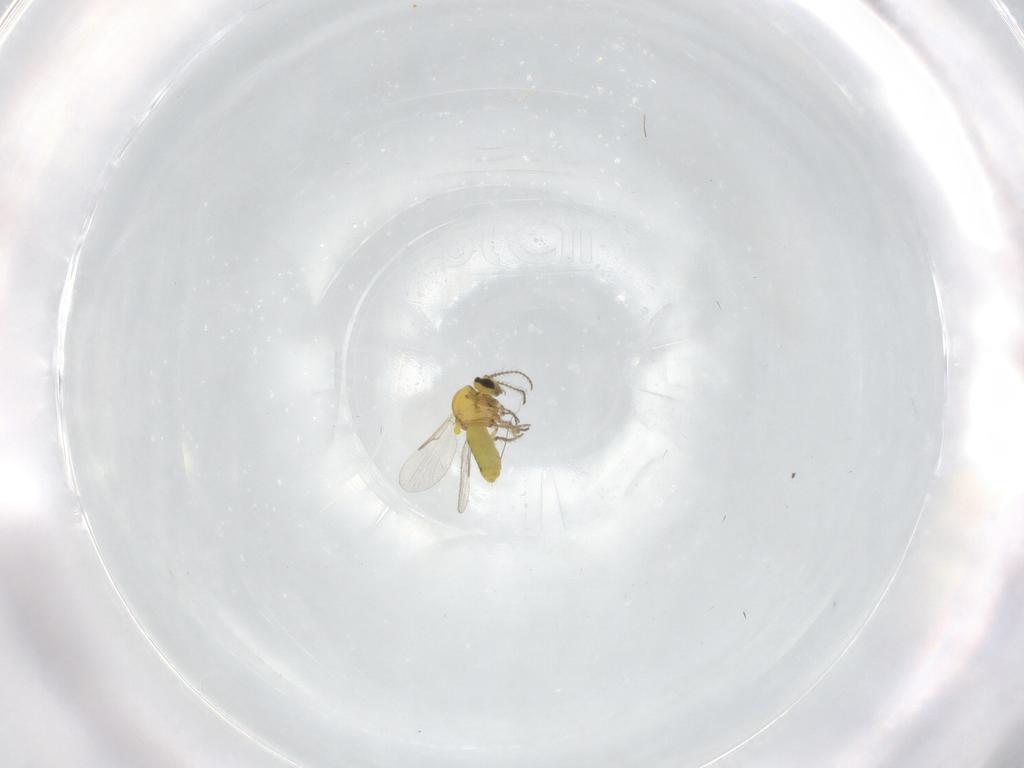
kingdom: Animalia
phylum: Arthropoda
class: Insecta
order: Diptera
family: Ceratopogonidae
